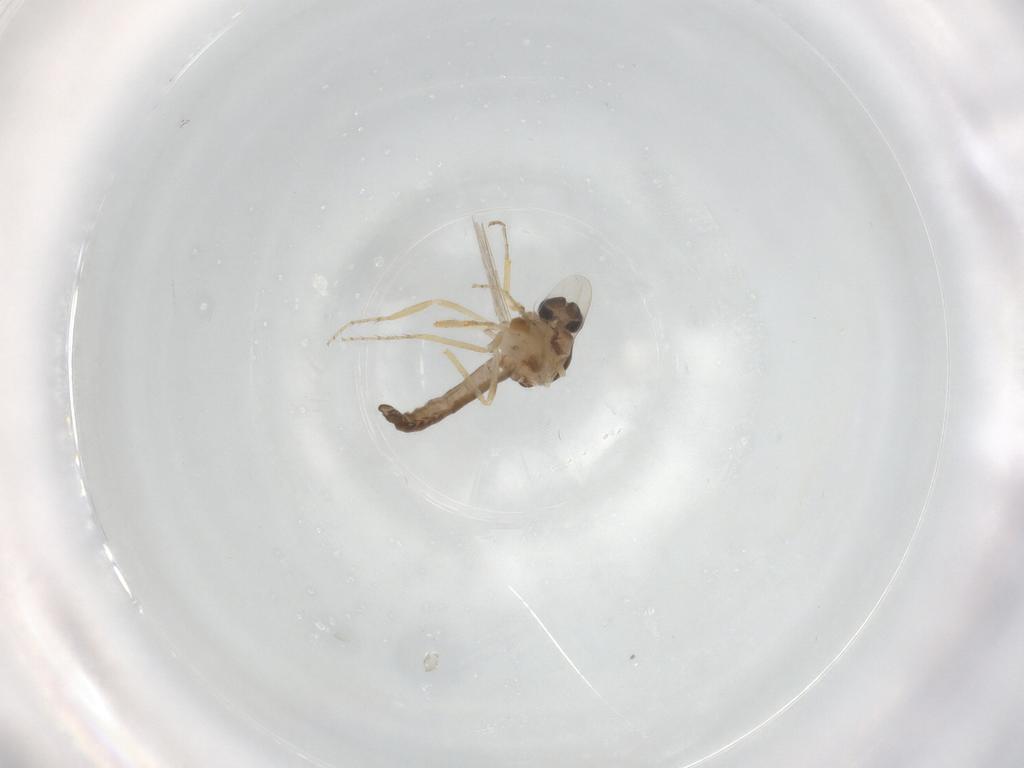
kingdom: Animalia
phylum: Arthropoda
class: Insecta
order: Diptera
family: Ceratopogonidae
